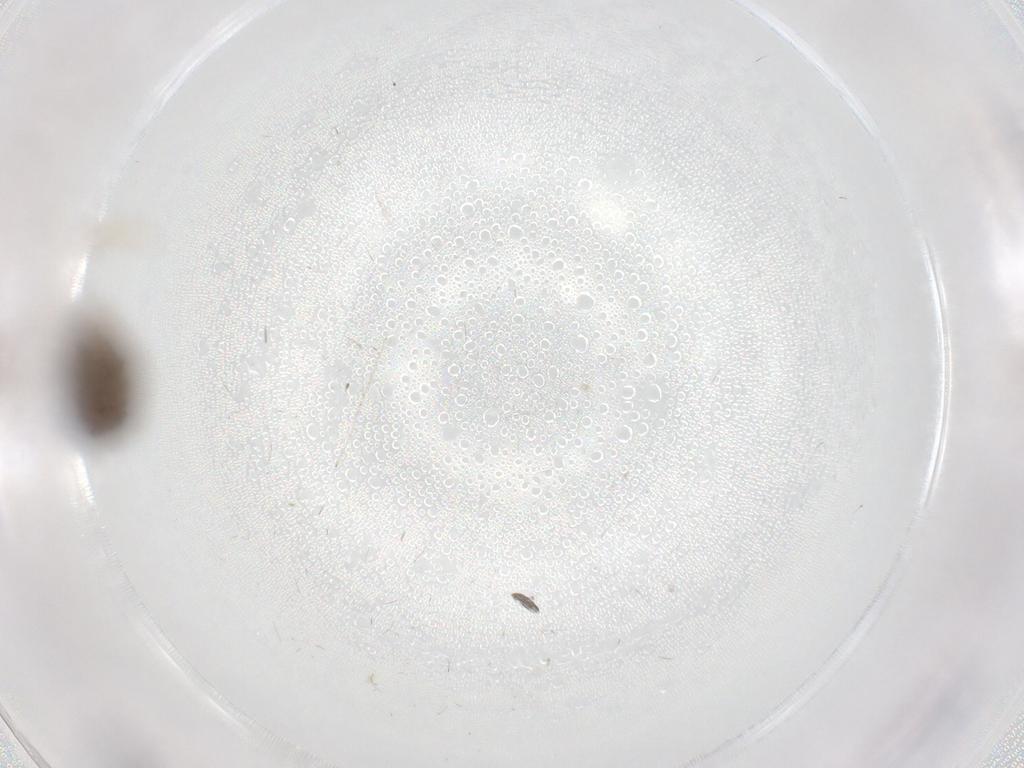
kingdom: Animalia
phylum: Arthropoda
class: Insecta
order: Diptera
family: Sphaeroceridae
